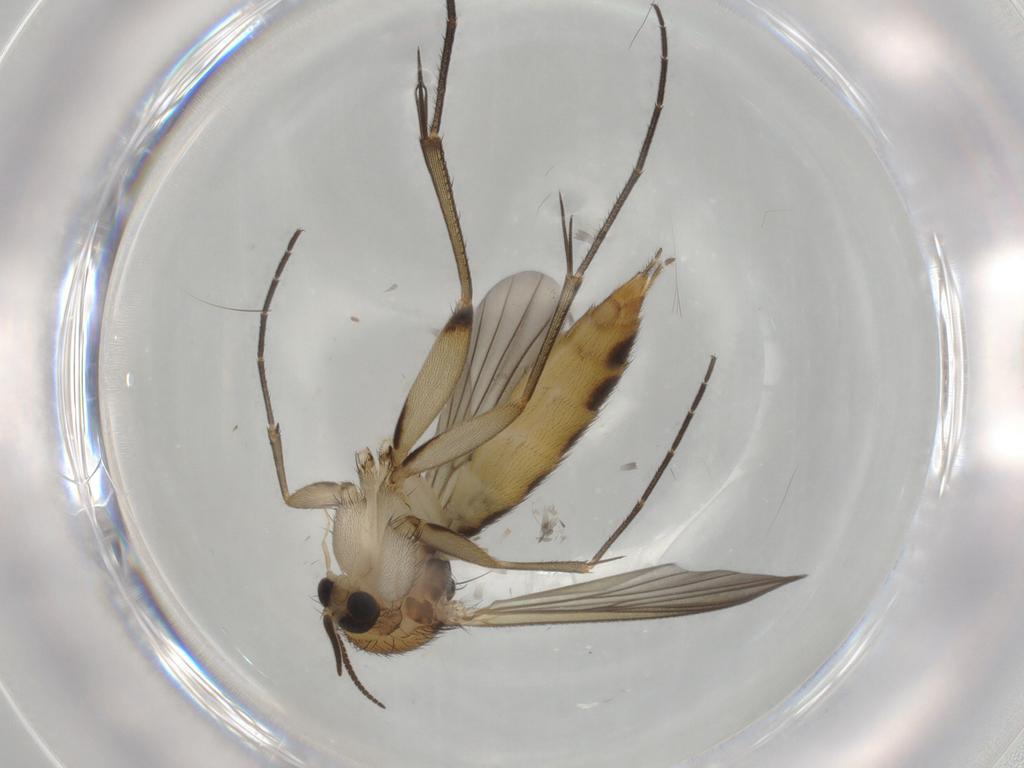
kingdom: Animalia
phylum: Arthropoda
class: Insecta
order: Diptera
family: Mycetophilidae
